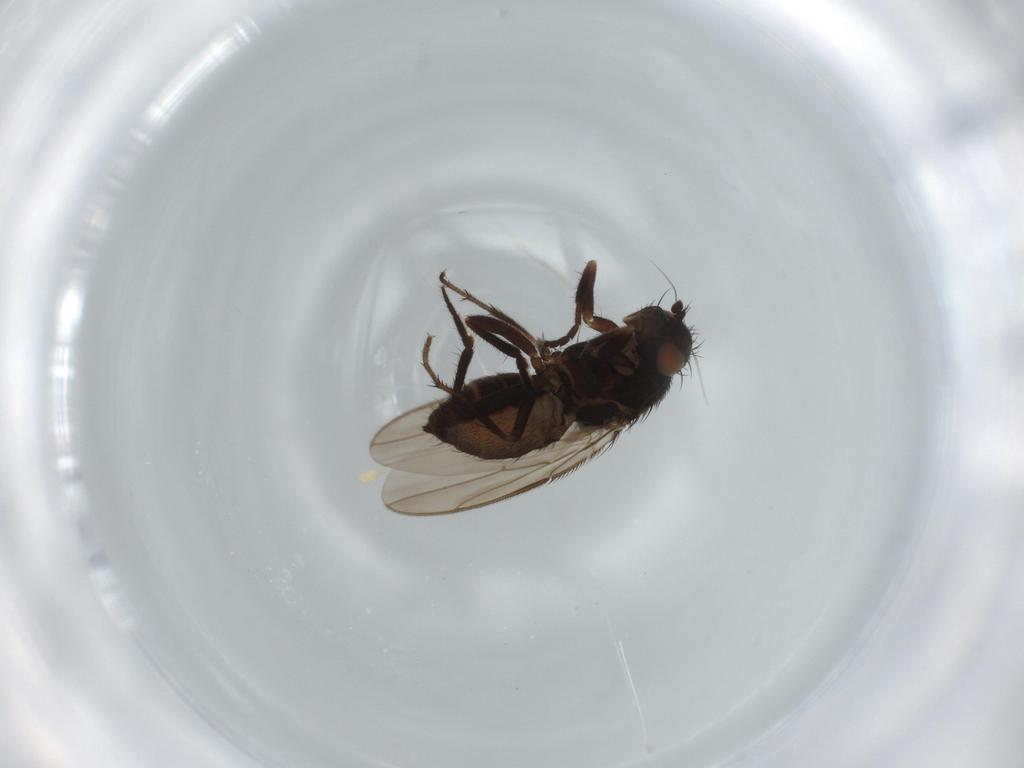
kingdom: Animalia
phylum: Arthropoda
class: Insecta
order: Diptera
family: Sphaeroceridae
